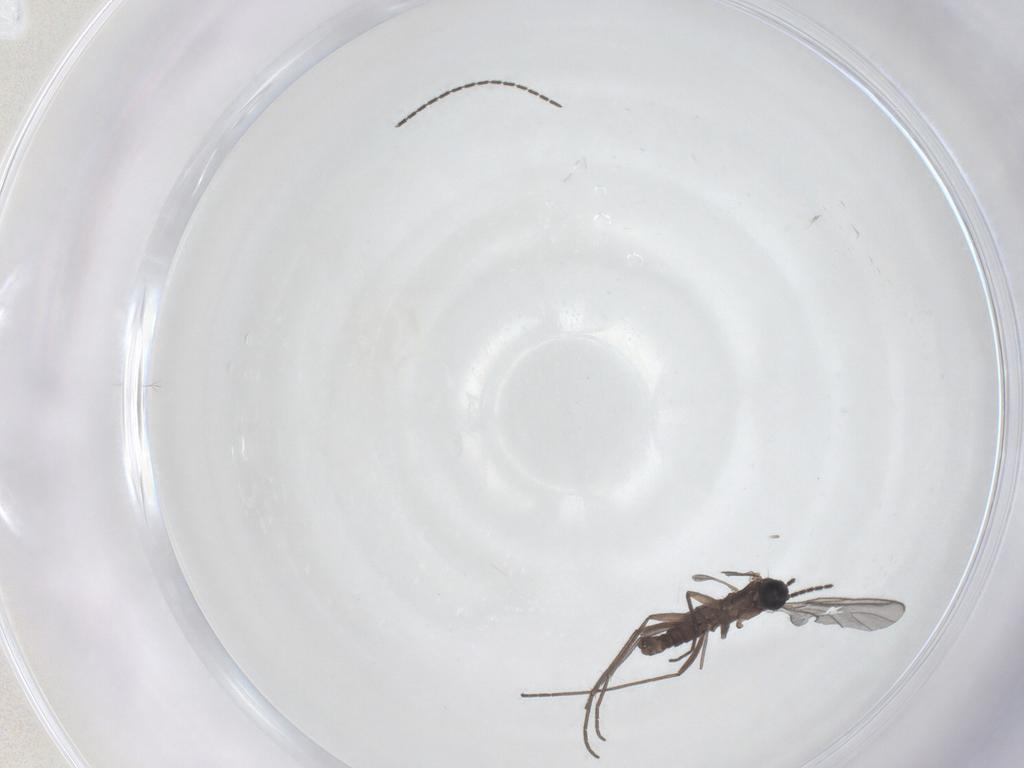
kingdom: Animalia
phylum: Arthropoda
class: Insecta
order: Diptera
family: Sciaridae
